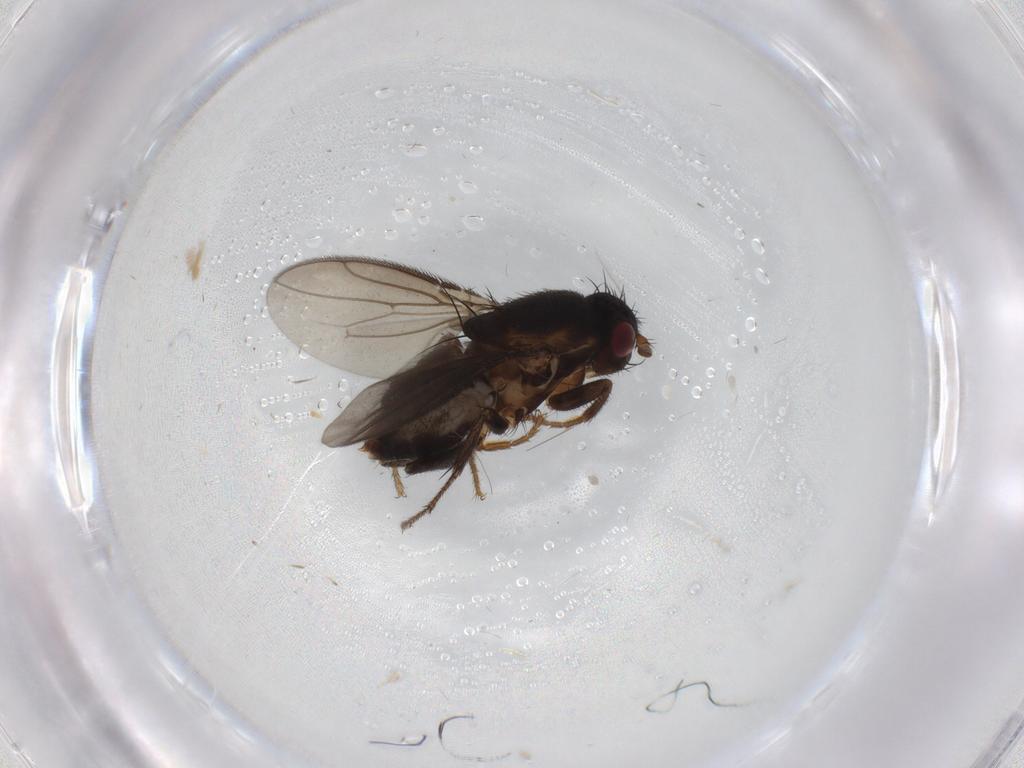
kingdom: Animalia
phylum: Arthropoda
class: Insecta
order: Diptera
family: Sphaeroceridae
